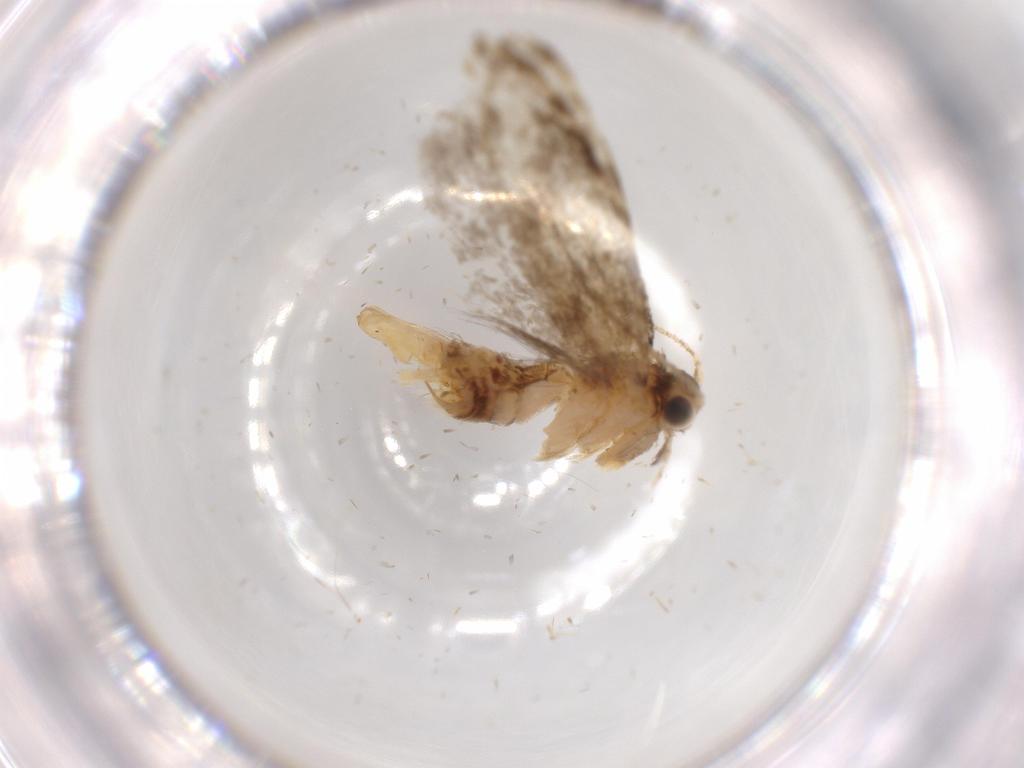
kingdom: Animalia
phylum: Arthropoda
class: Insecta
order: Lepidoptera
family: Tineidae
